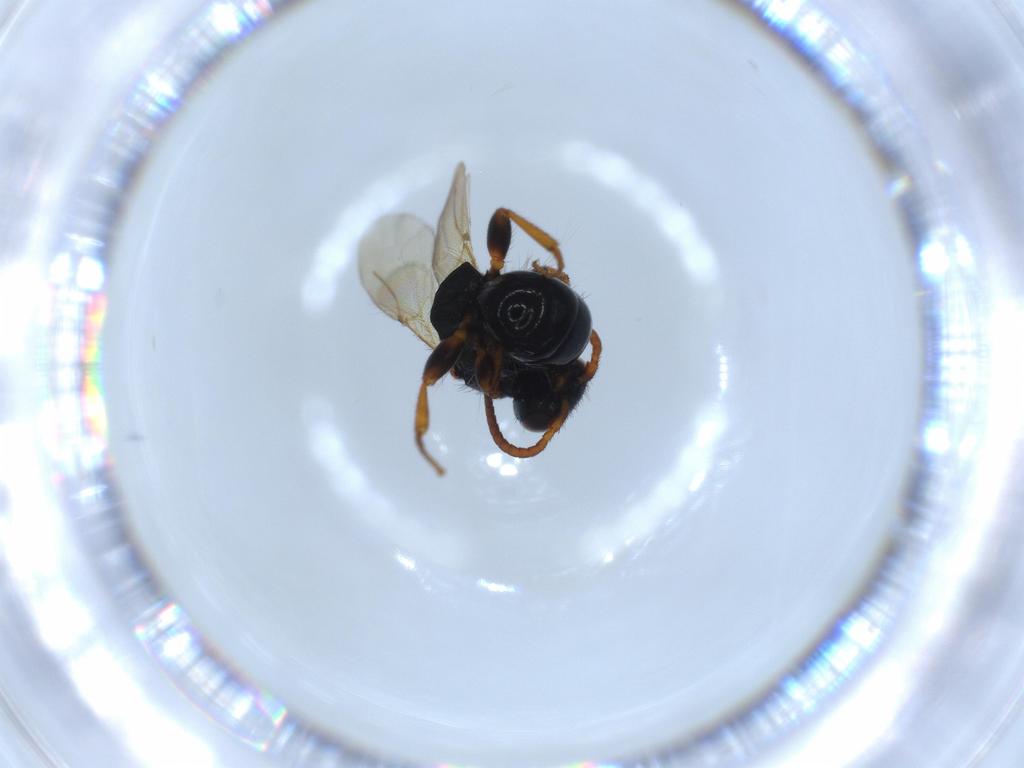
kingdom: Animalia
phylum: Arthropoda
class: Insecta
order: Hymenoptera
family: Bethylidae
